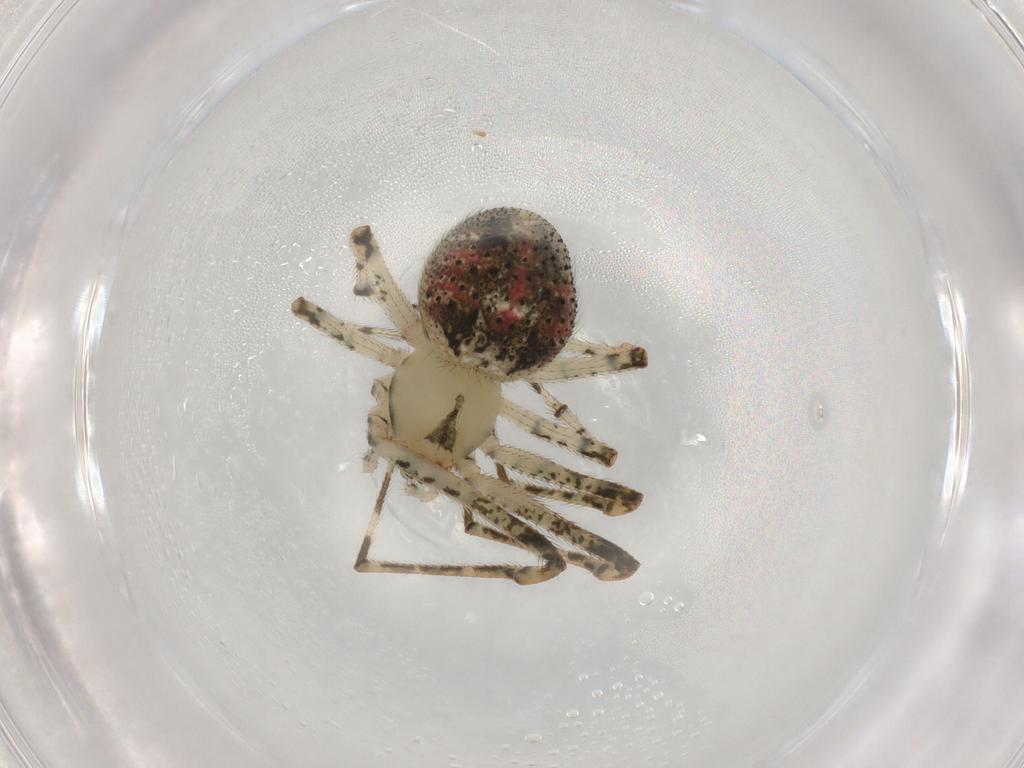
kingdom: Animalia
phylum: Arthropoda
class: Arachnida
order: Araneae
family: Theridiidae
